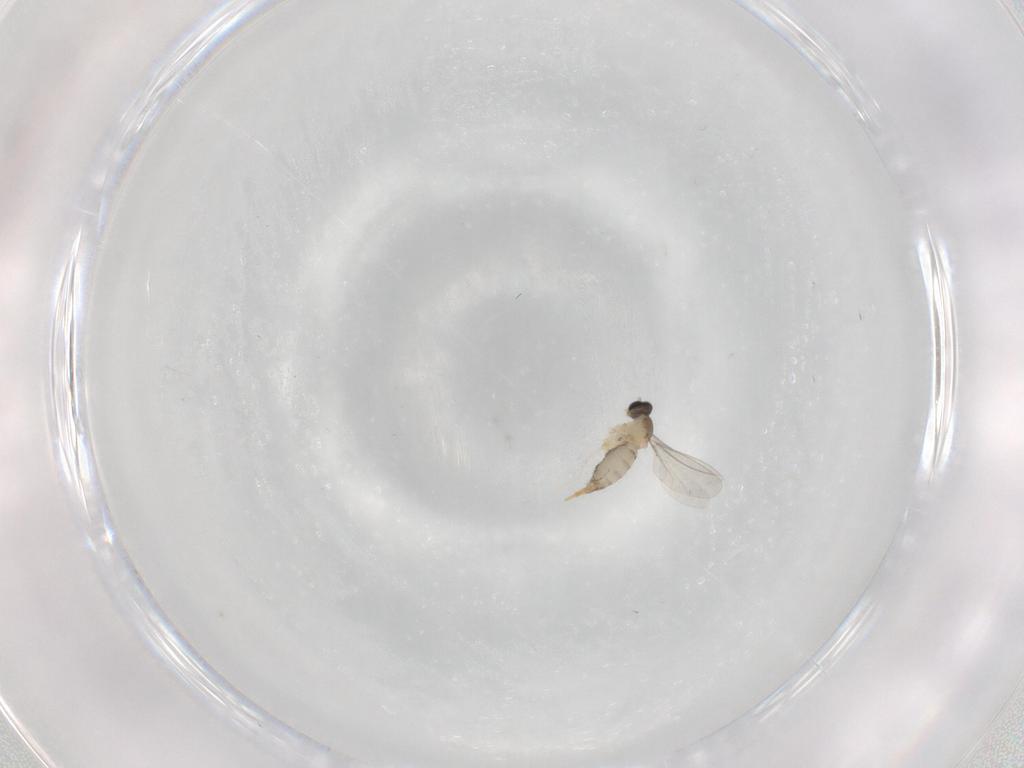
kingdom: Animalia
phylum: Arthropoda
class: Insecta
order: Diptera
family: Cecidomyiidae
